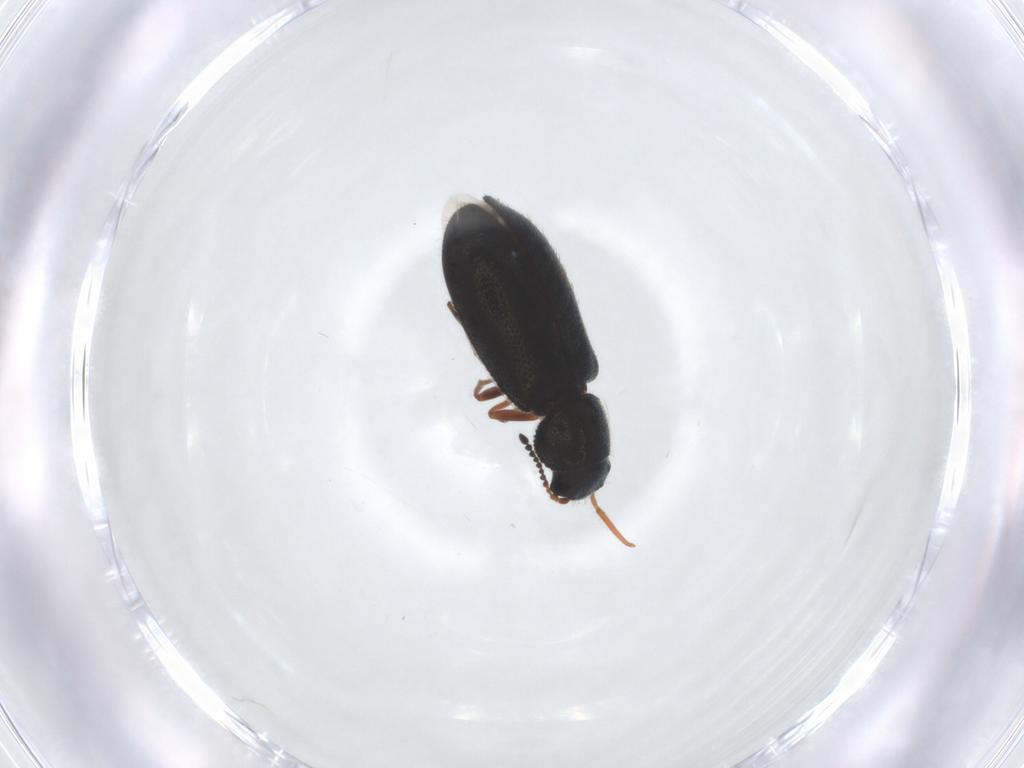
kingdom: Animalia
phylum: Arthropoda
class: Insecta
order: Coleoptera
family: Melyridae
